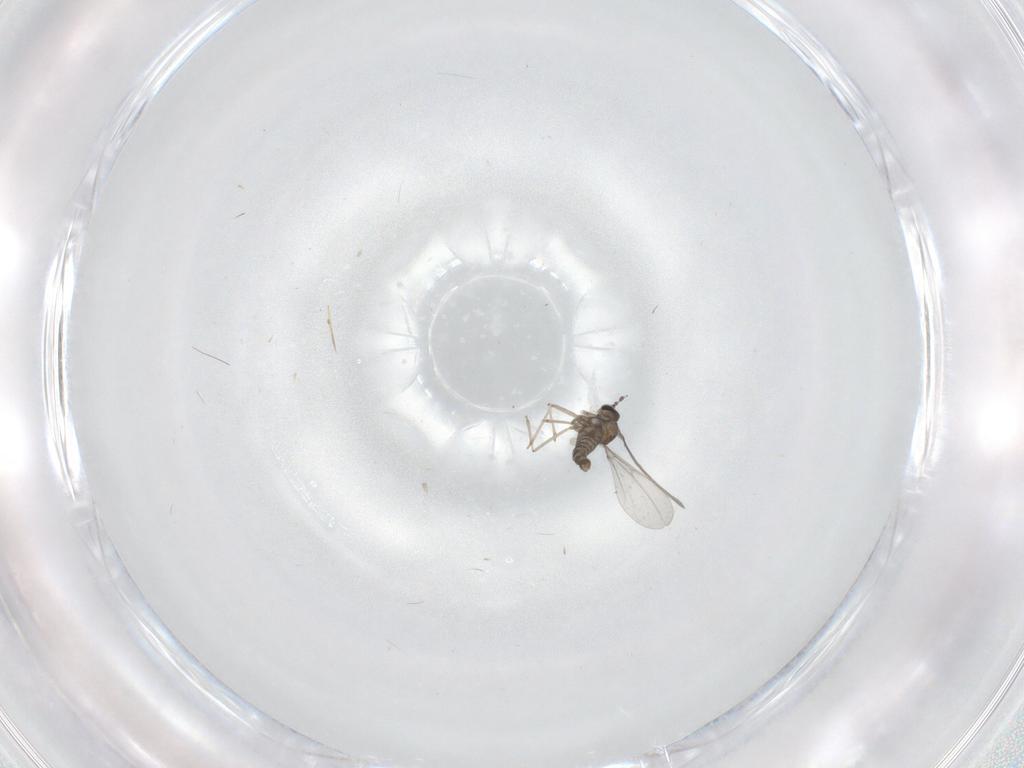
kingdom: Animalia
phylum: Arthropoda
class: Insecta
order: Diptera
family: Cecidomyiidae
